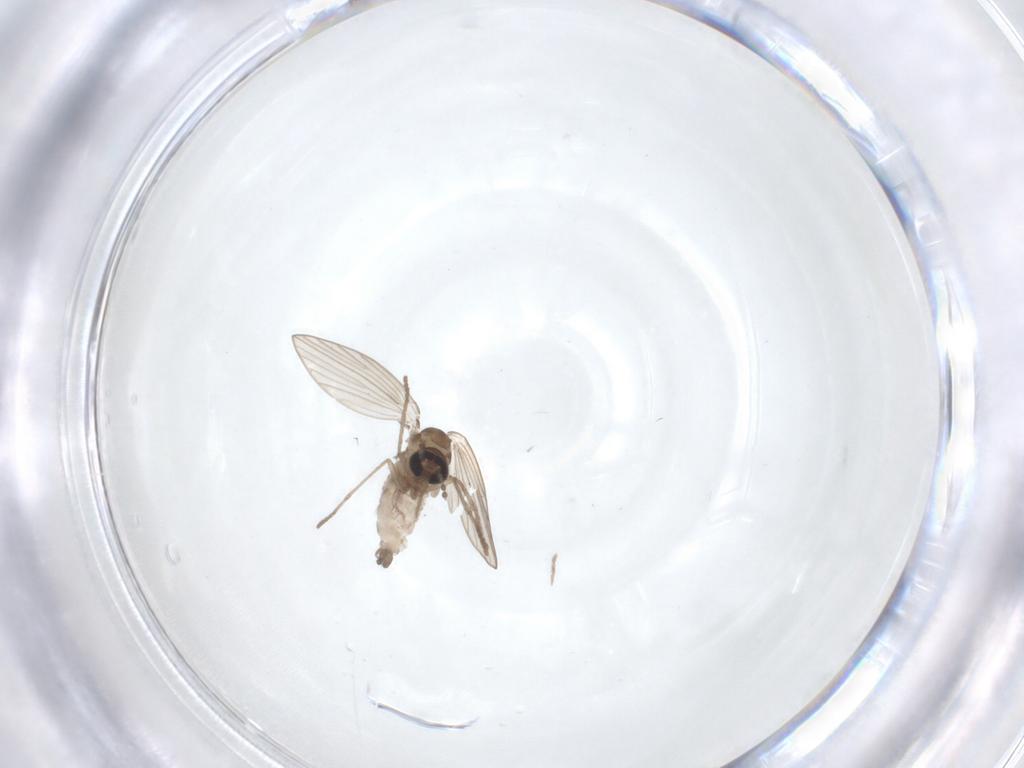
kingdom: Animalia
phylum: Arthropoda
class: Insecta
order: Diptera
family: Psychodidae
